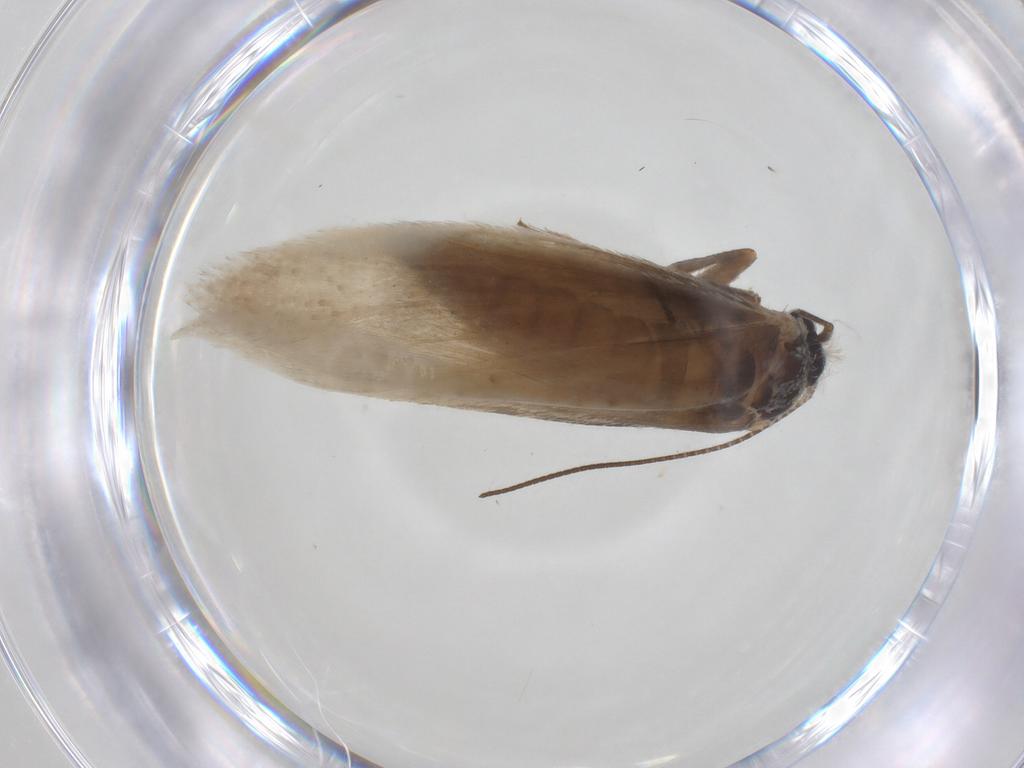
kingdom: Animalia
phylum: Arthropoda
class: Insecta
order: Lepidoptera
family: Tridentaformidae
